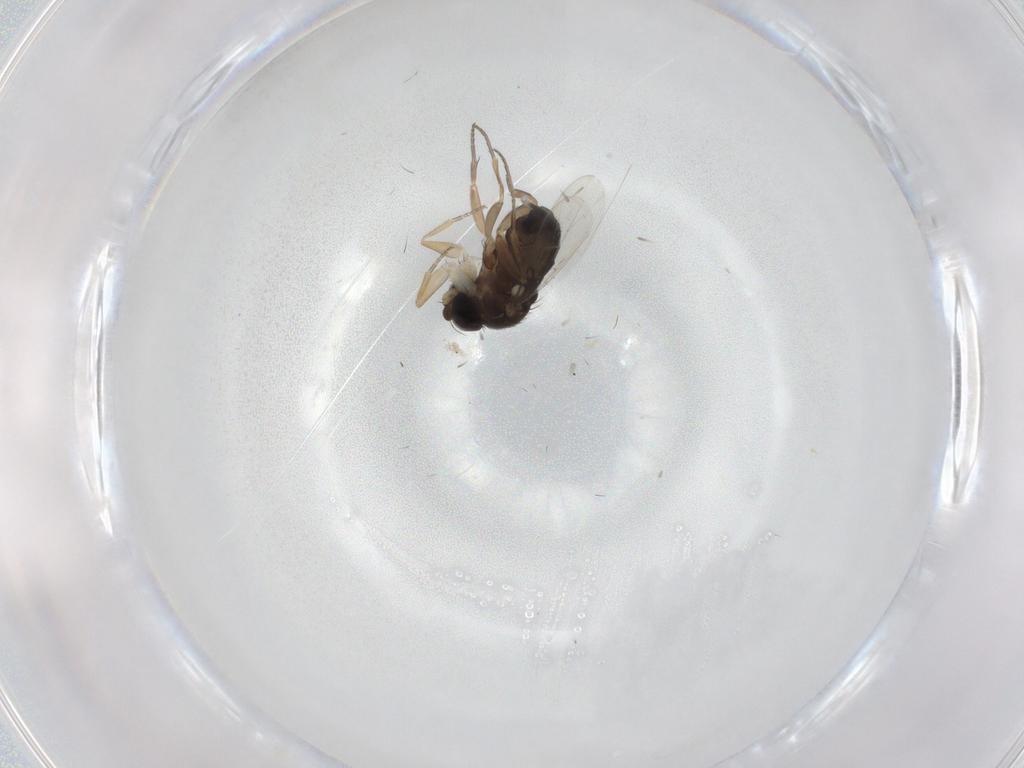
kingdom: Animalia
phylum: Arthropoda
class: Insecta
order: Diptera
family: Phoridae
